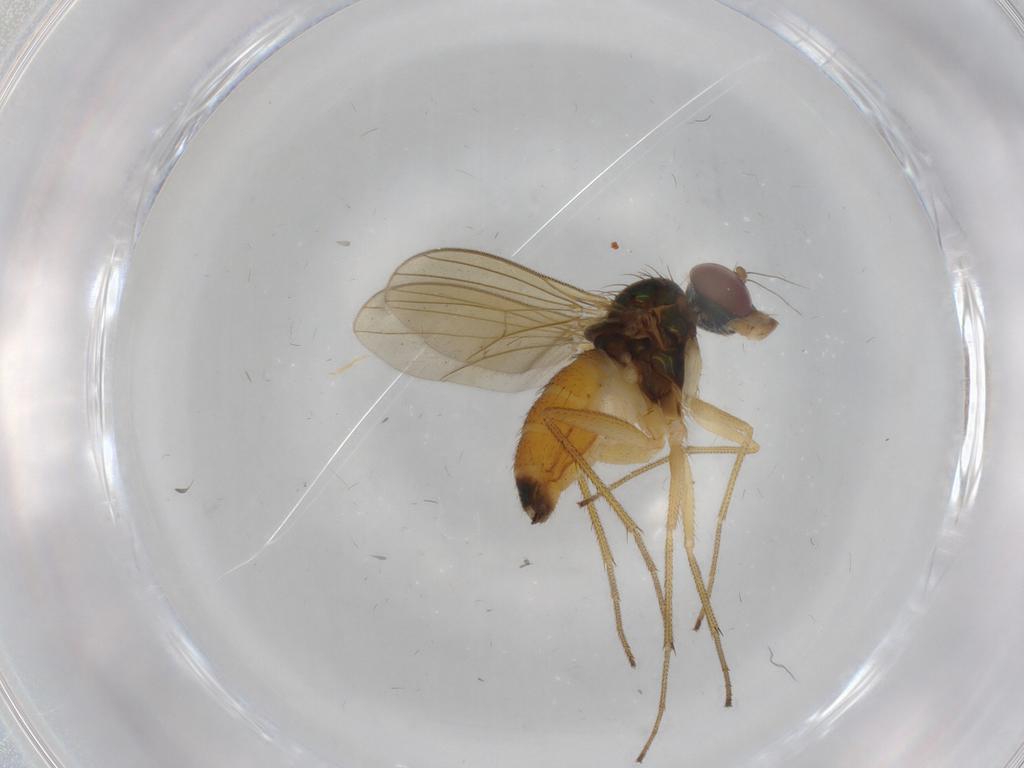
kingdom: Animalia
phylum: Arthropoda
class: Insecta
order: Diptera
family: Dolichopodidae
